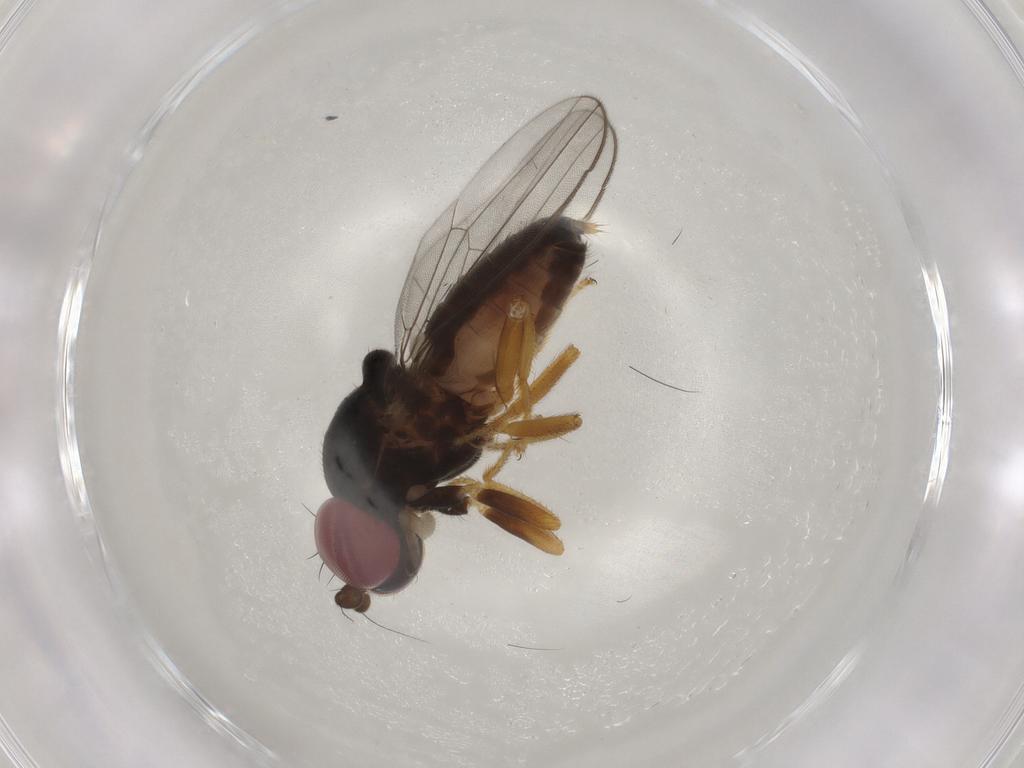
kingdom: Animalia
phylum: Arthropoda
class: Insecta
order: Diptera
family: Aulacigastridae
